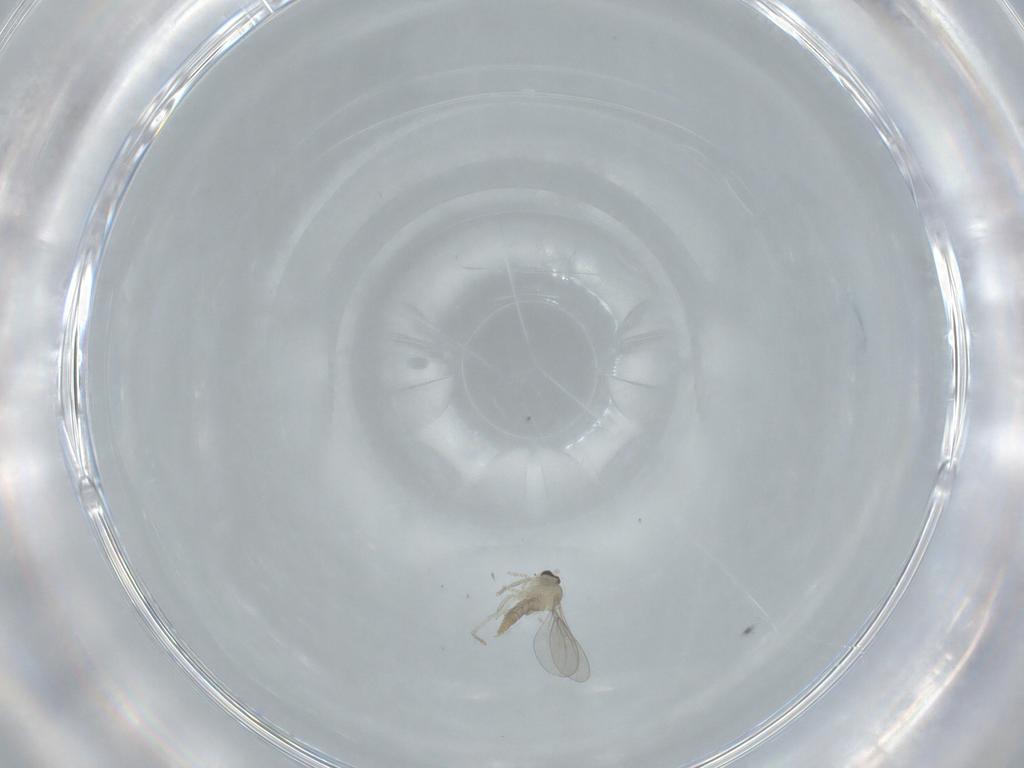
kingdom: Animalia
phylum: Arthropoda
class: Insecta
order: Diptera
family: Cecidomyiidae
